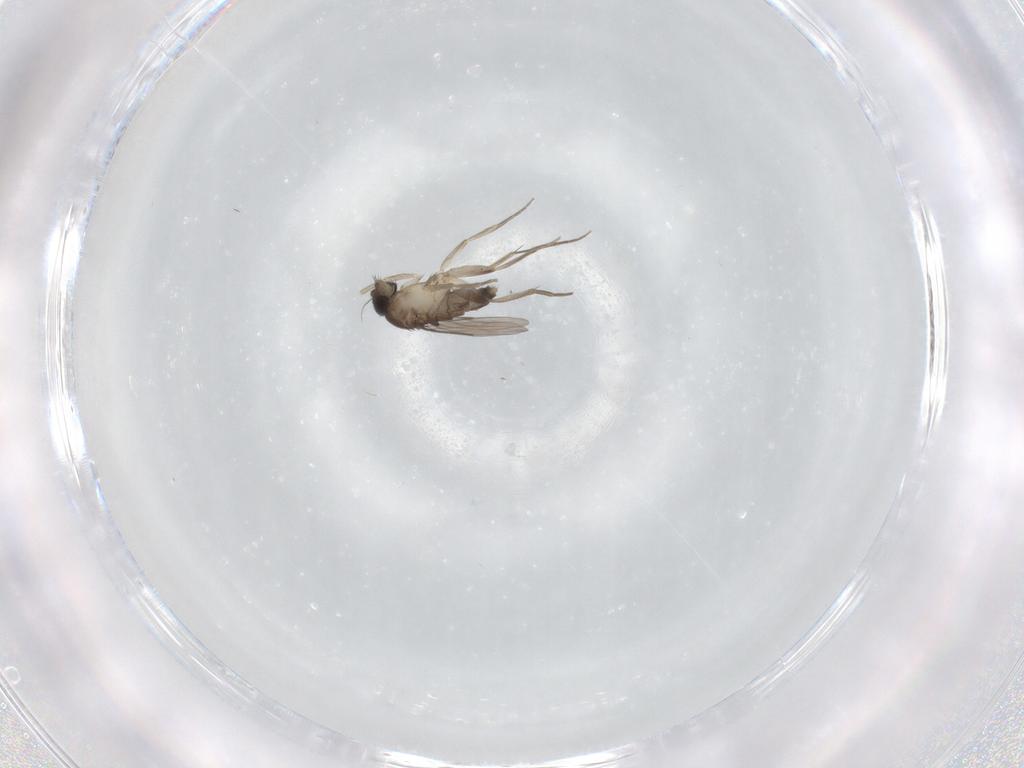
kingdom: Animalia
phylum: Arthropoda
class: Insecta
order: Diptera
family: Phoridae
